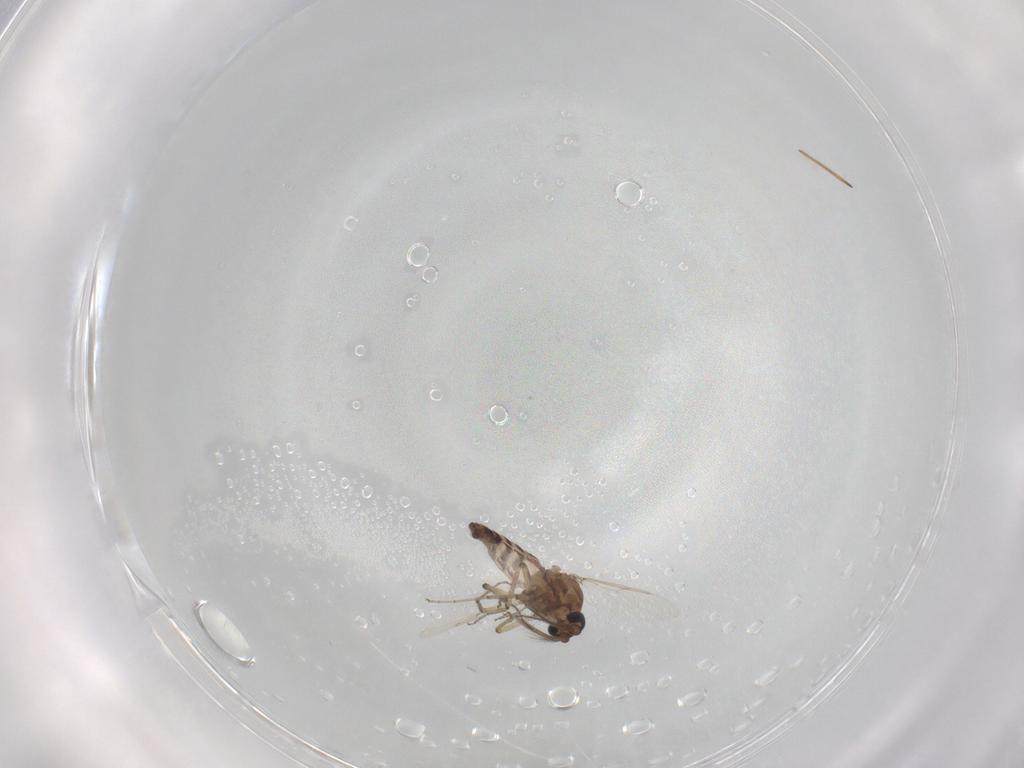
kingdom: Animalia
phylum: Arthropoda
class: Insecta
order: Diptera
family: Ceratopogonidae
